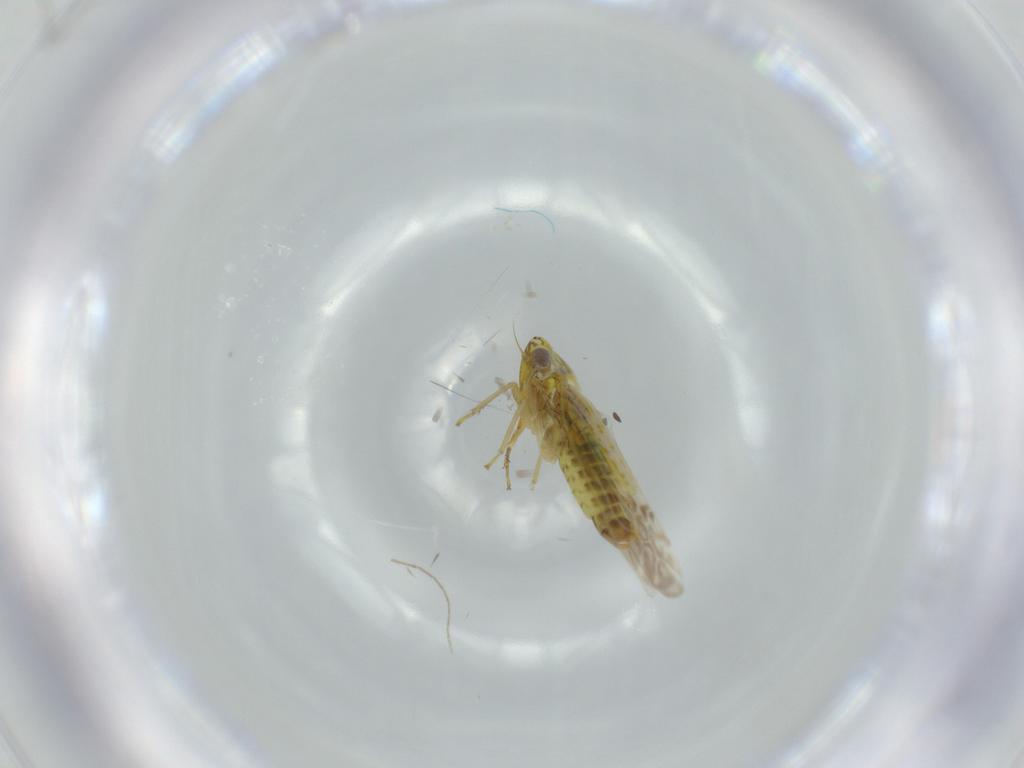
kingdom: Animalia
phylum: Arthropoda
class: Insecta
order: Hemiptera
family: Cicadellidae
